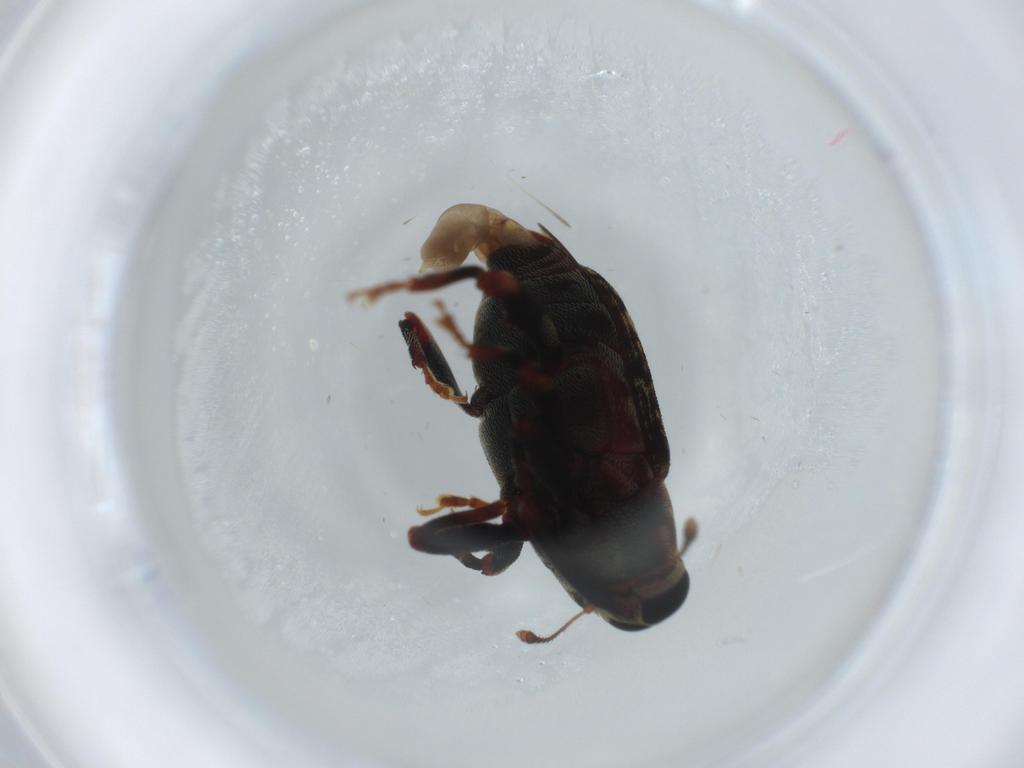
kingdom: Animalia
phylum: Arthropoda
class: Insecta
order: Coleoptera
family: Curculionidae
